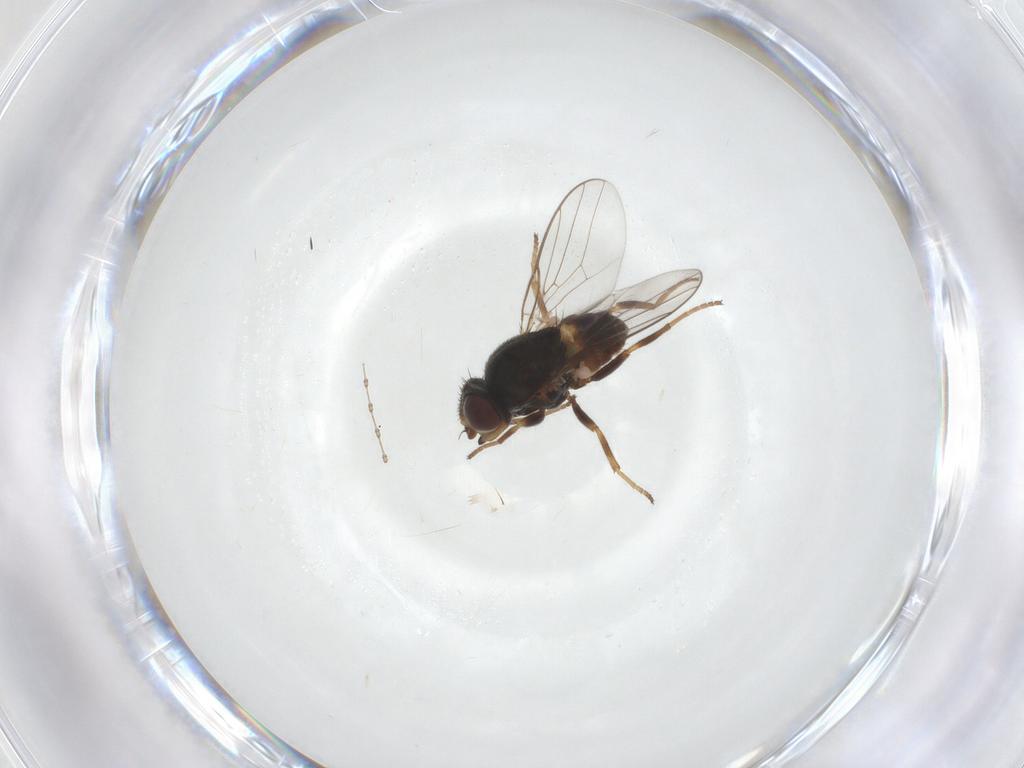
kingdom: Animalia
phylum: Arthropoda
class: Insecta
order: Diptera
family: Chloropidae
